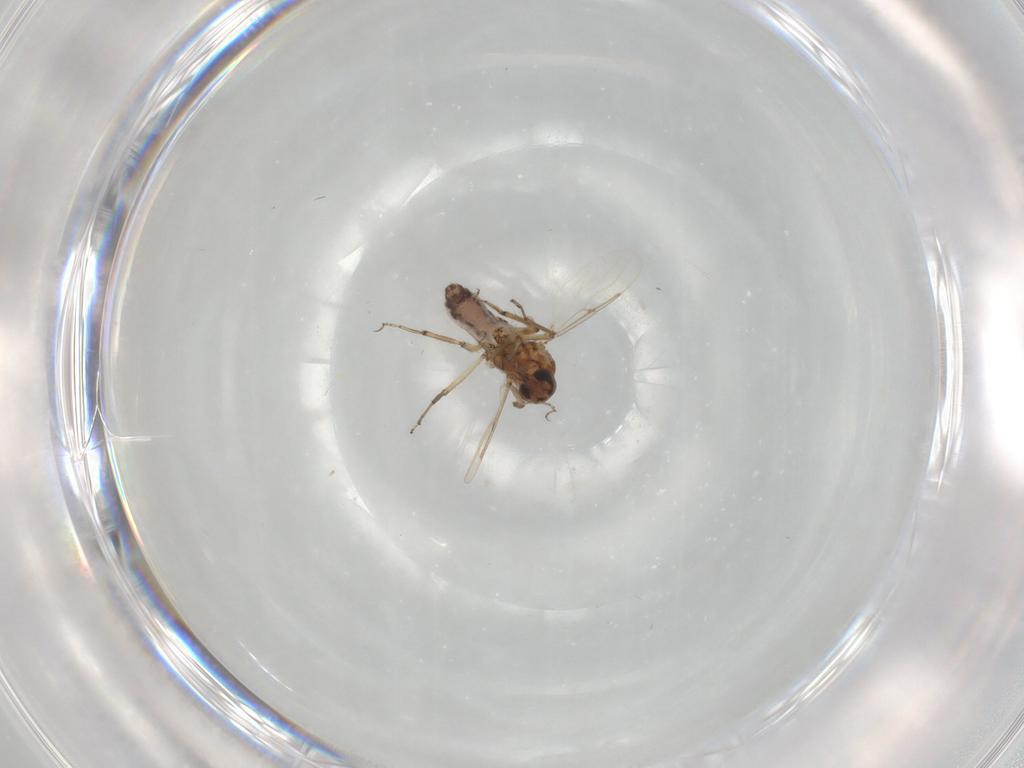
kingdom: Animalia
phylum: Arthropoda
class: Insecta
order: Diptera
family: Ceratopogonidae
